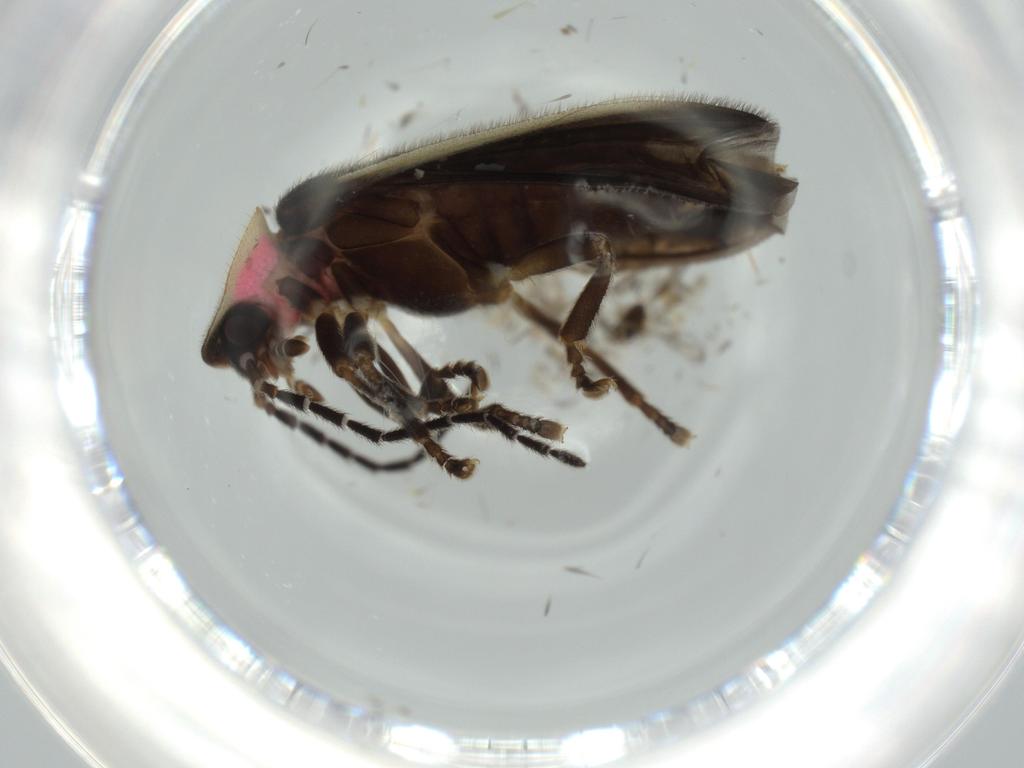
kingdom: Animalia
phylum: Arthropoda
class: Insecta
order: Coleoptera
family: Lampyridae
